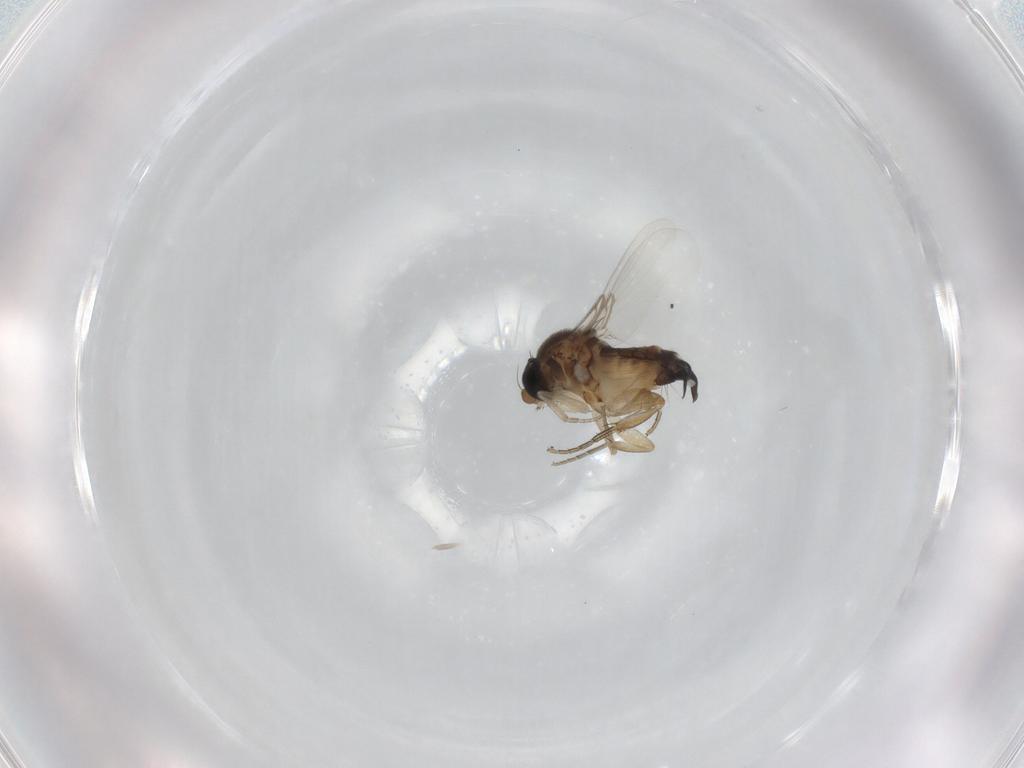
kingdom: Animalia
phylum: Arthropoda
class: Insecta
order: Diptera
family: Phoridae
